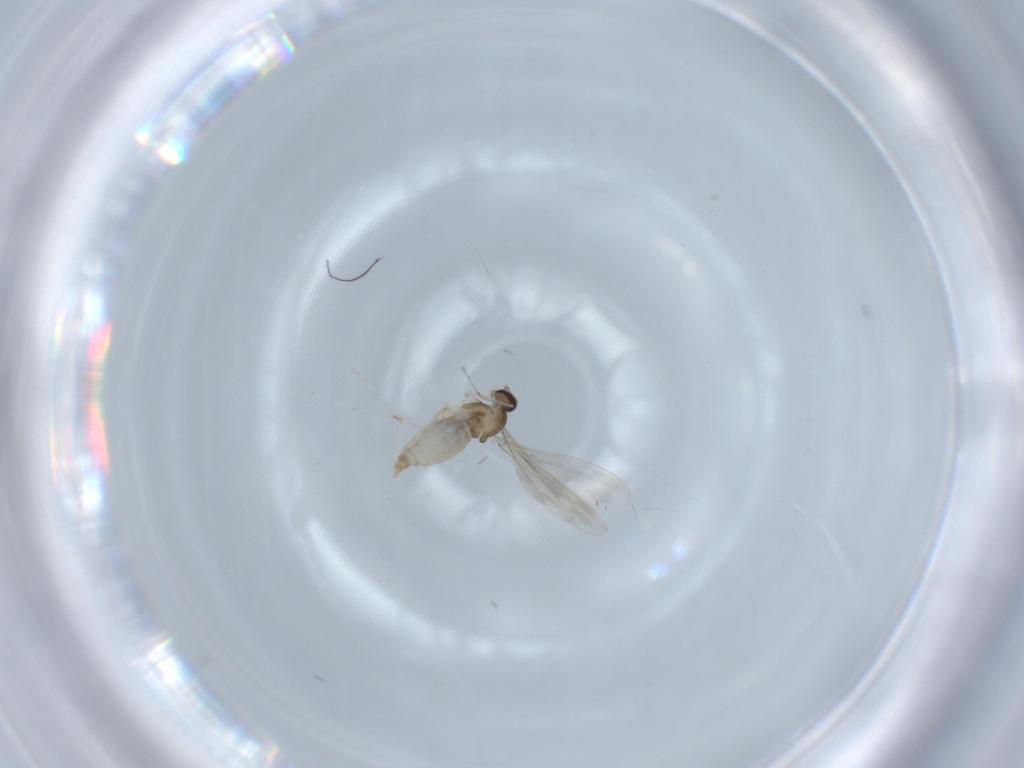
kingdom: Animalia
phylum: Arthropoda
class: Insecta
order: Diptera
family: Cecidomyiidae
